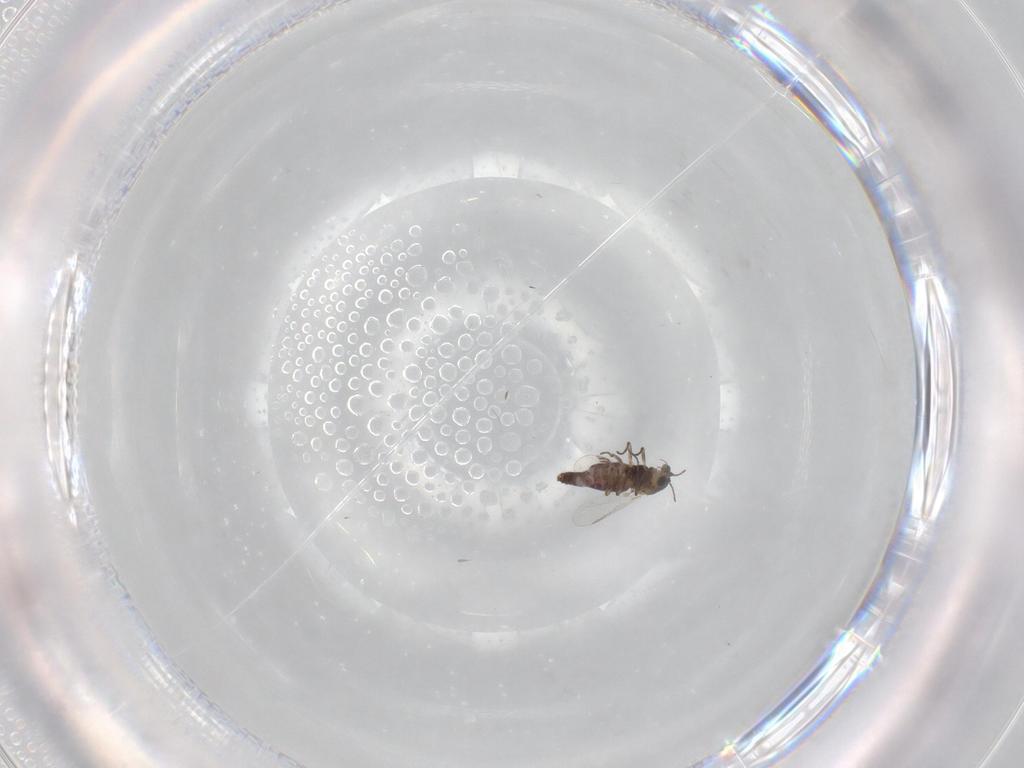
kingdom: Animalia
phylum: Arthropoda
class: Insecta
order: Diptera
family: Chironomidae
